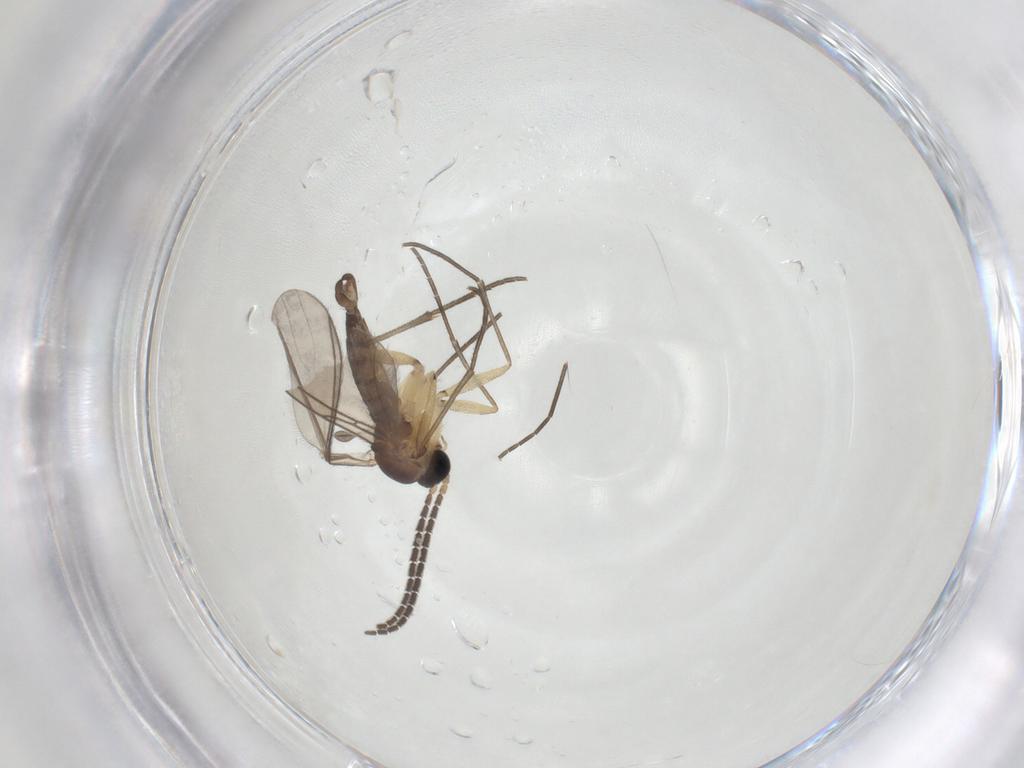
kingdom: Animalia
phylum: Arthropoda
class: Insecta
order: Diptera
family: Sciaridae
